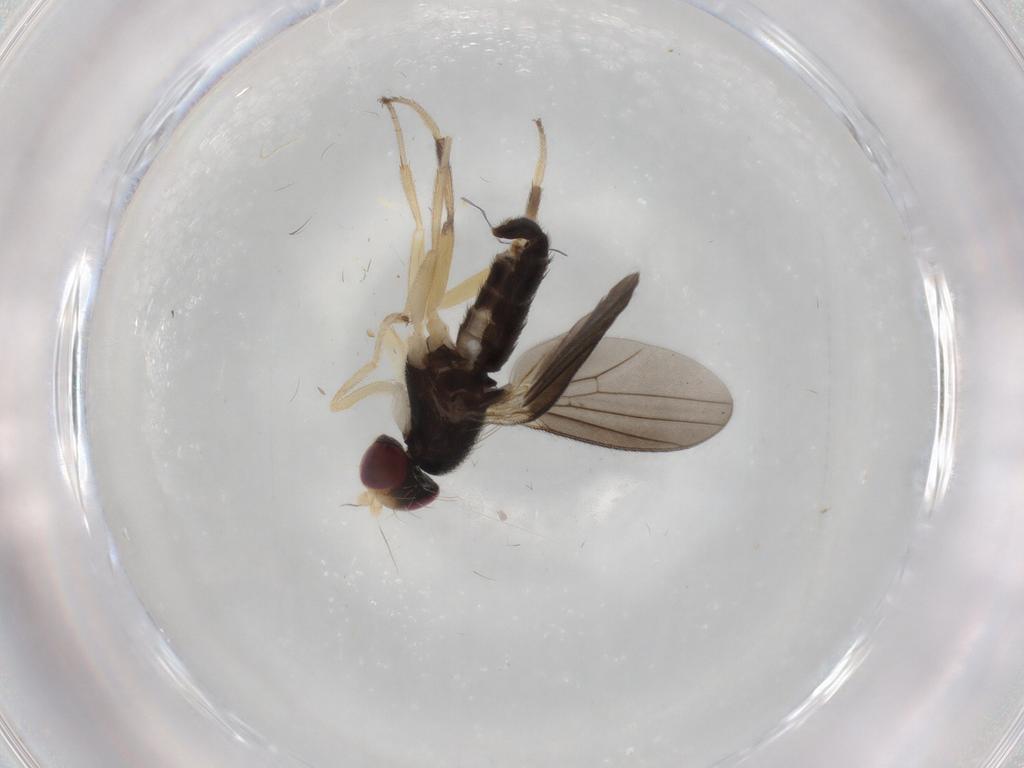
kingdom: Animalia
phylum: Arthropoda
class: Insecta
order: Diptera
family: Clusiidae
